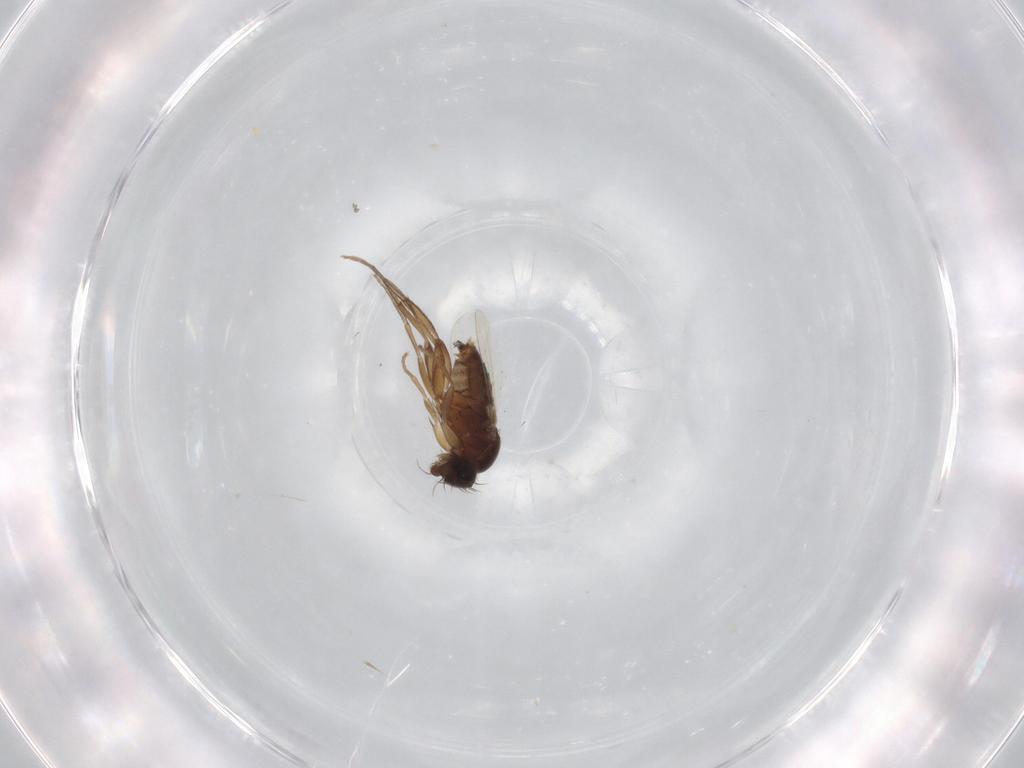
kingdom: Animalia
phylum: Arthropoda
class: Insecta
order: Diptera
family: Phoridae
